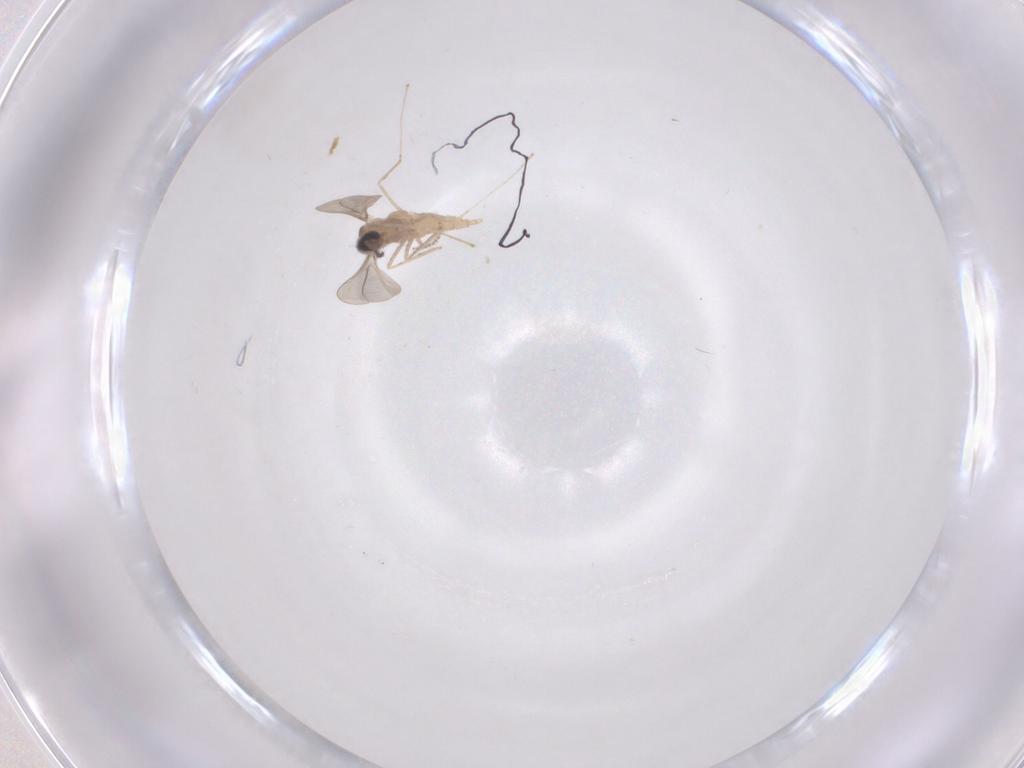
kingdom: Animalia
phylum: Arthropoda
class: Insecta
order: Diptera
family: Cecidomyiidae
